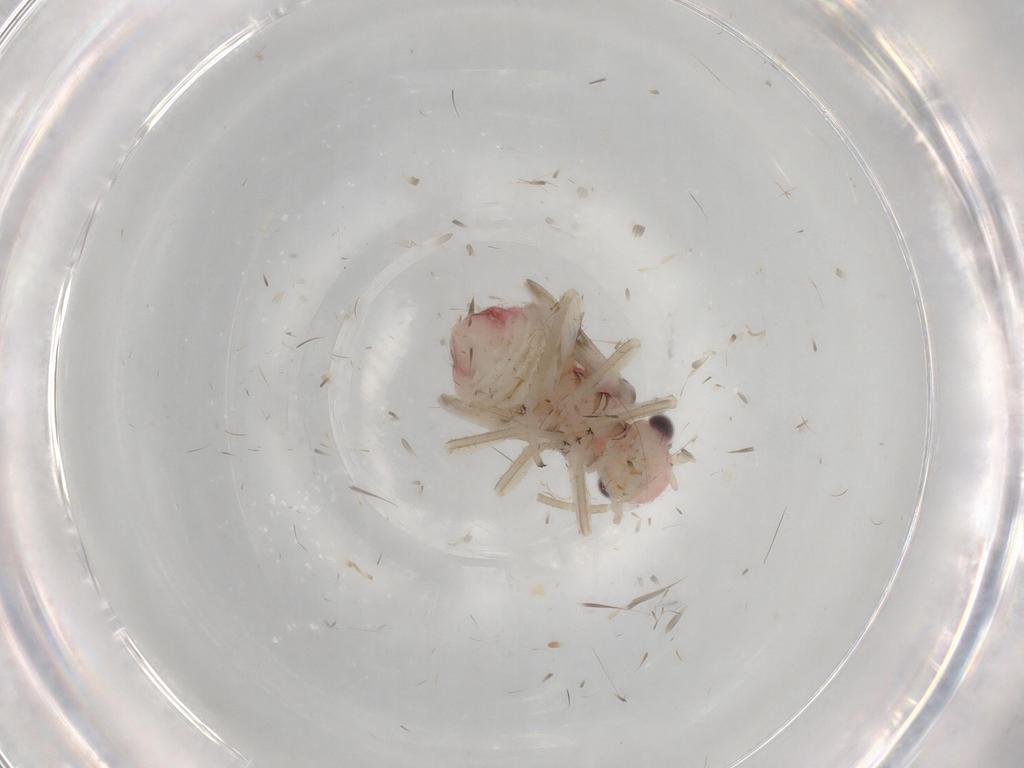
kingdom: Animalia
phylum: Arthropoda
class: Insecta
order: Psocodea
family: Amphipsocidae
